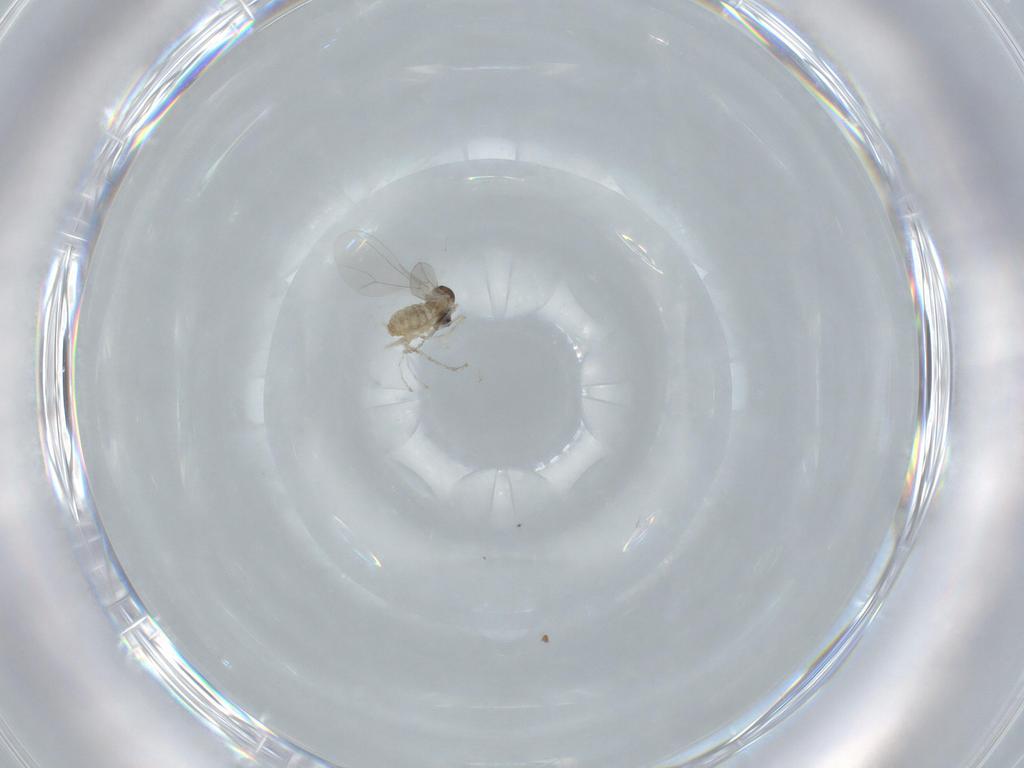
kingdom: Animalia
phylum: Arthropoda
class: Insecta
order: Diptera
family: Cecidomyiidae
